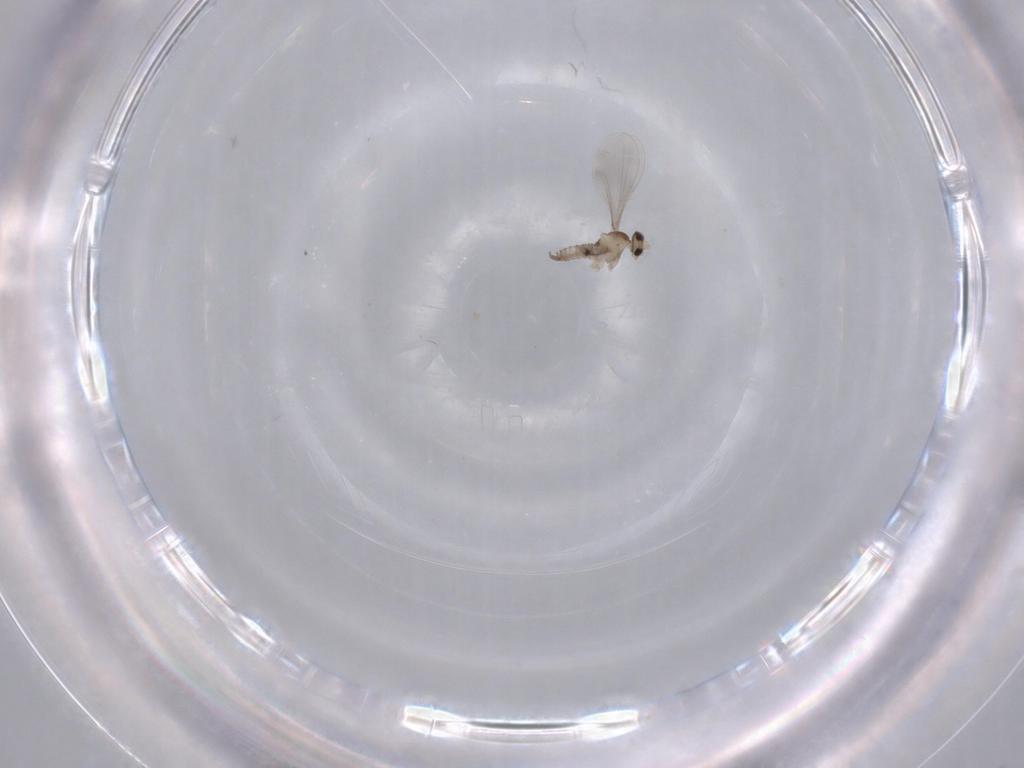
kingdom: Animalia
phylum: Arthropoda
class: Insecta
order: Diptera
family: Cecidomyiidae
